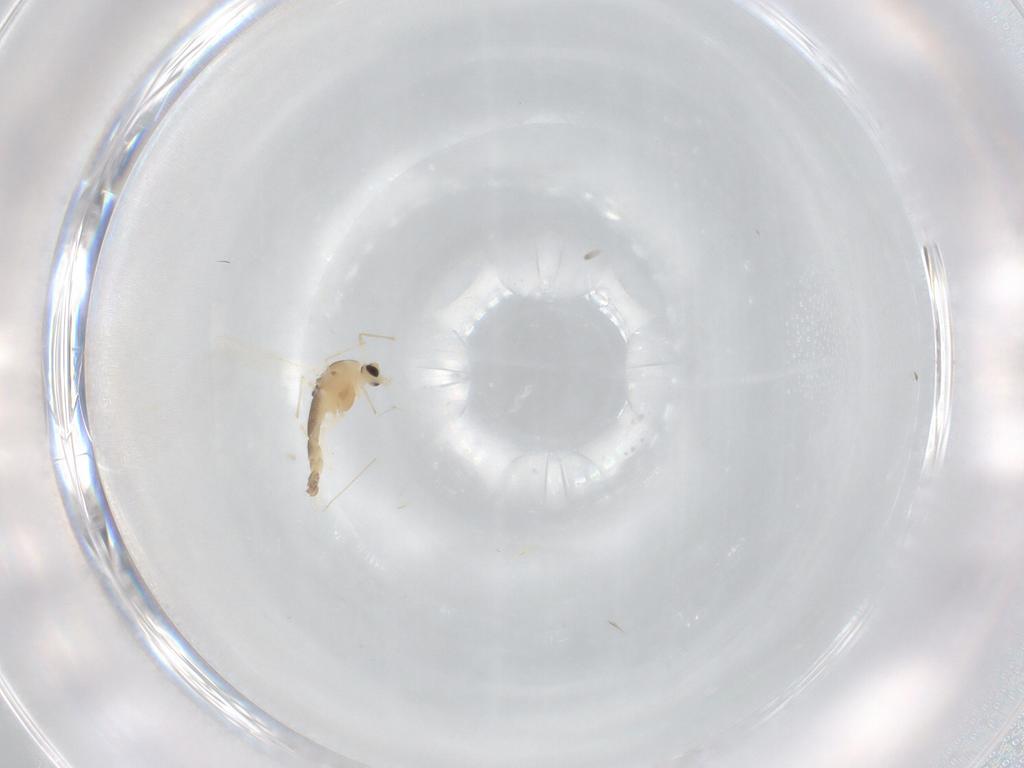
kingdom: Animalia
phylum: Arthropoda
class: Insecta
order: Diptera
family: Chironomidae
